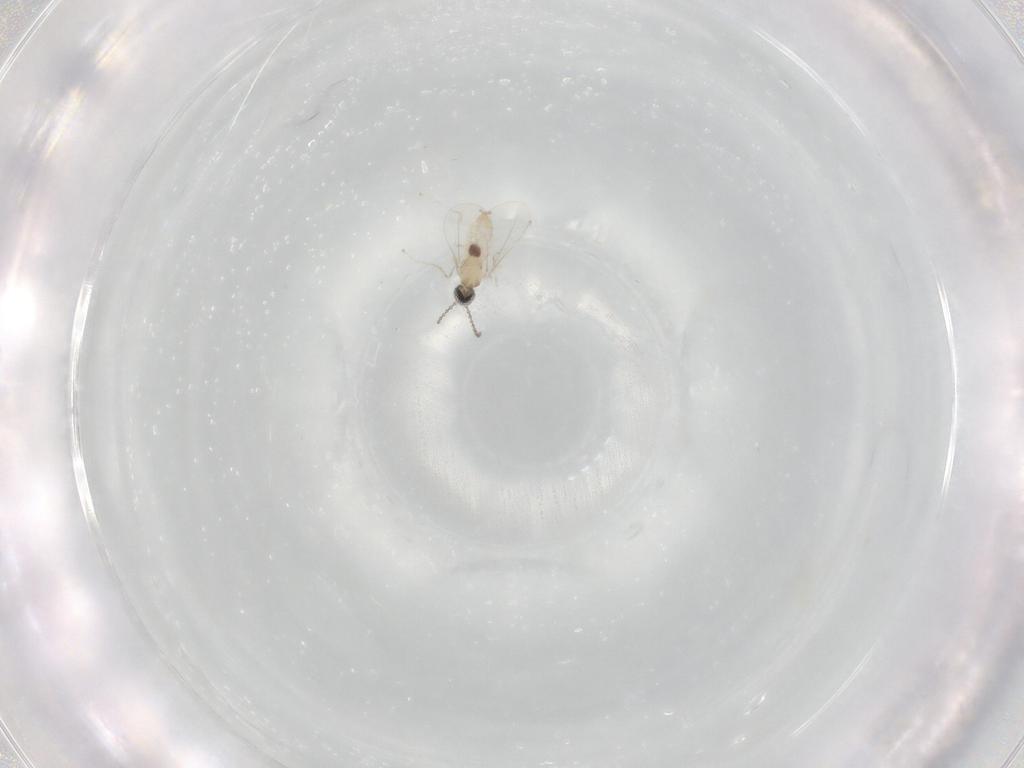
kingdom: Animalia
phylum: Arthropoda
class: Insecta
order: Diptera
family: Cecidomyiidae
